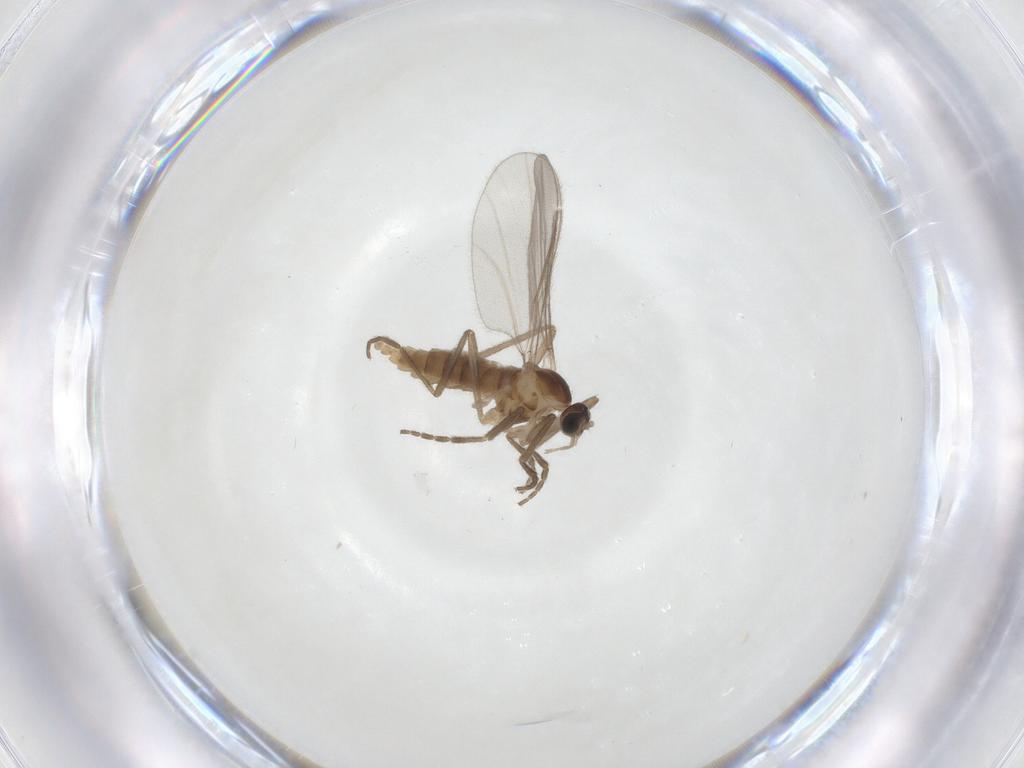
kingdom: Animalia
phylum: Arthropoda
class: Insecta
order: Diptera
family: Cecidomyiidae
